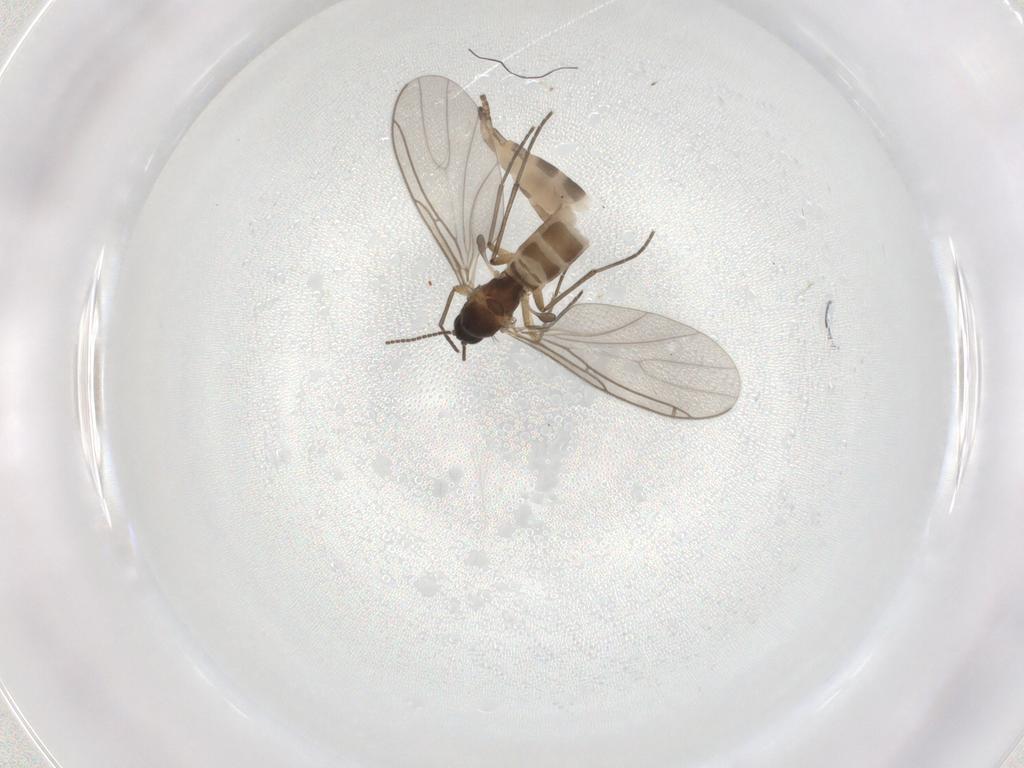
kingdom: Animalia
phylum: Arthropoda
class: Insecta
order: Diptera
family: Sciaridae
